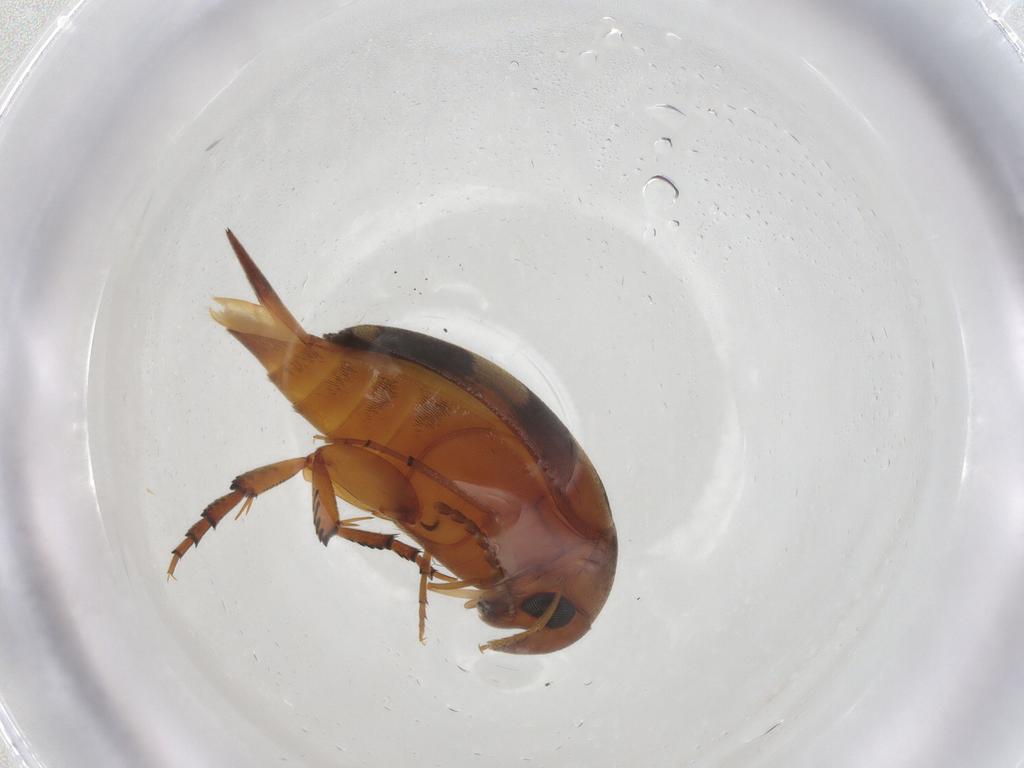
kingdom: Animalia
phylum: Arthropoda
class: Insecta
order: Coleoptera
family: Mordellidae
